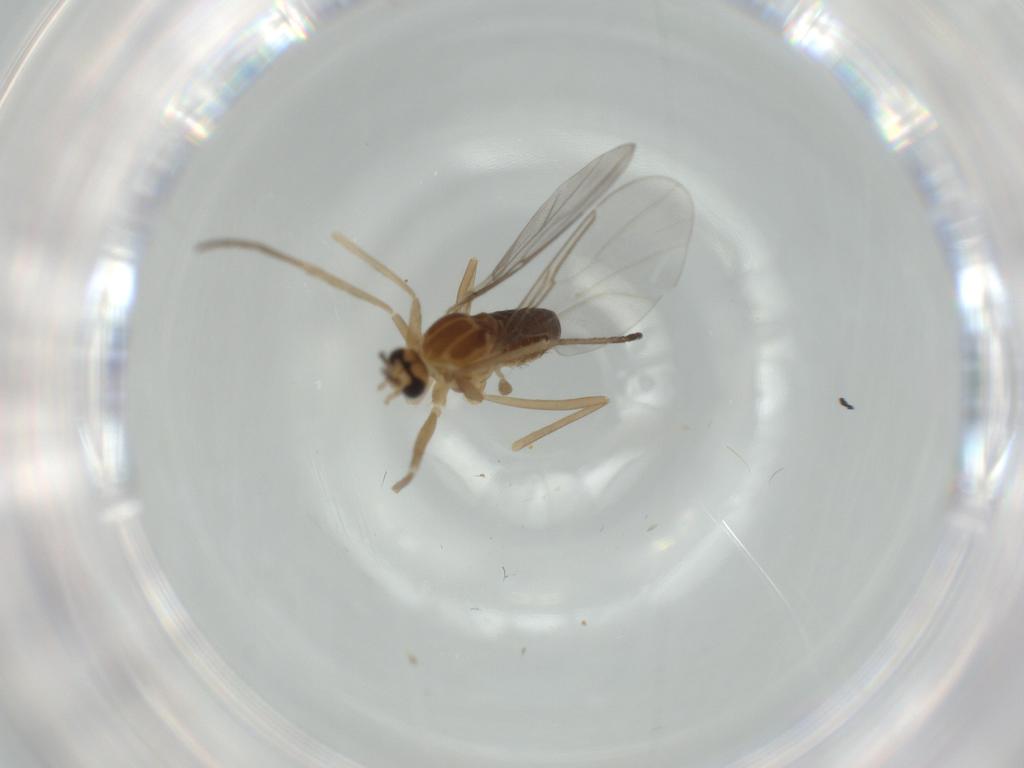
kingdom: Animalia
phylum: Arthropoda
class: Insecta
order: Diptera
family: Cecidomyiidae
